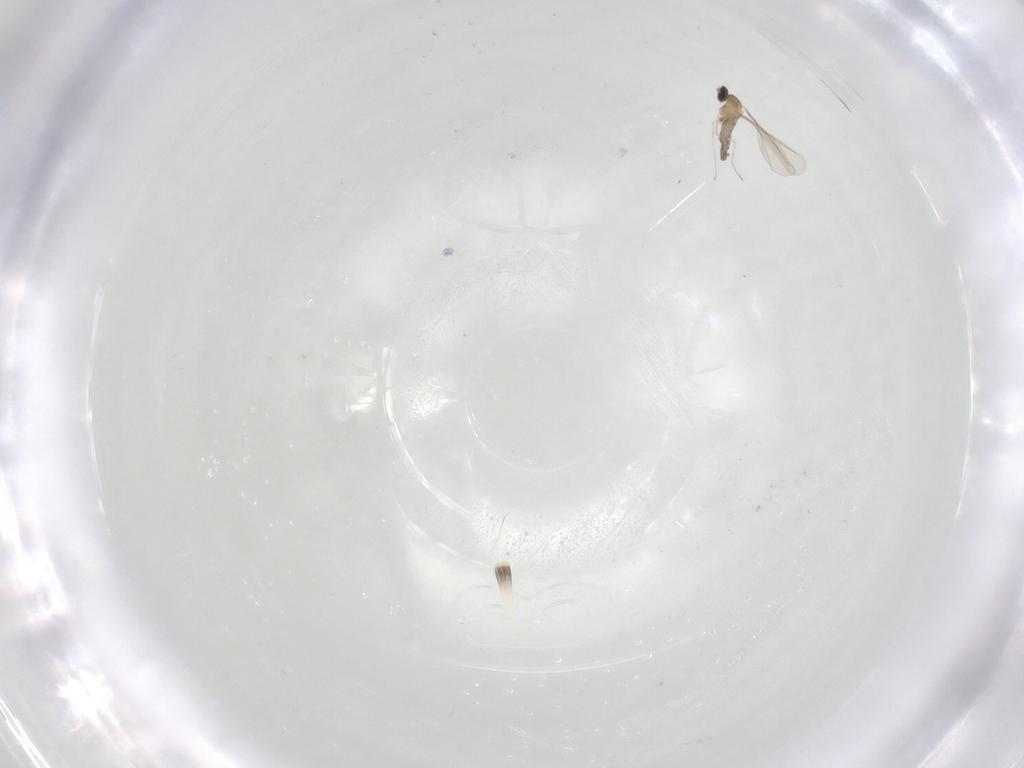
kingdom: Animalia
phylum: Arthropoda
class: Insecta
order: Diptera
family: Cecidomyiidae
